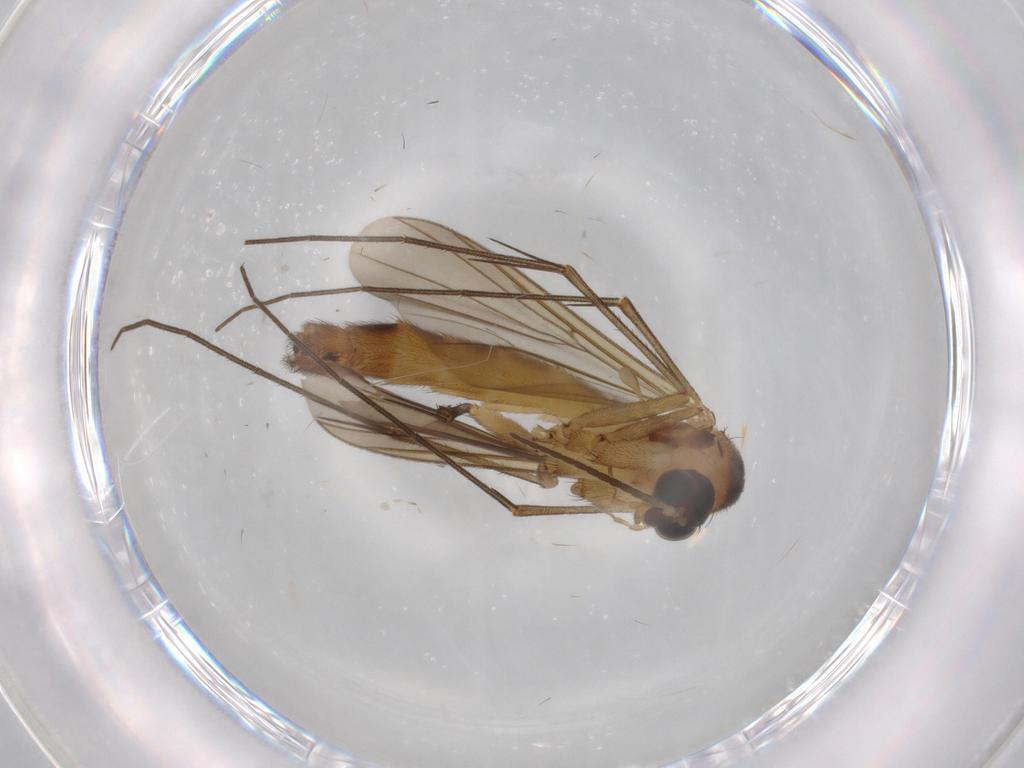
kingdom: Animalia
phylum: Arthropoda
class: Insecta
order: Diptera
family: Drosophilidae
